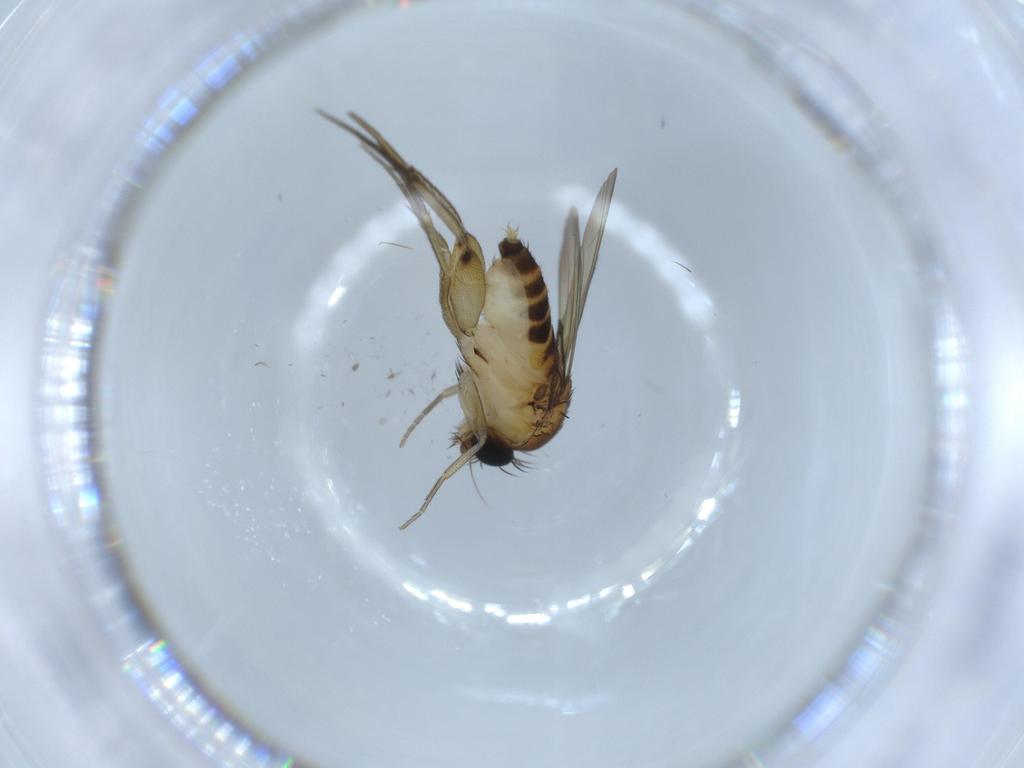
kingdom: Animalia
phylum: Arthropoda
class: Insecta
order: Diptera
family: Phoridae
